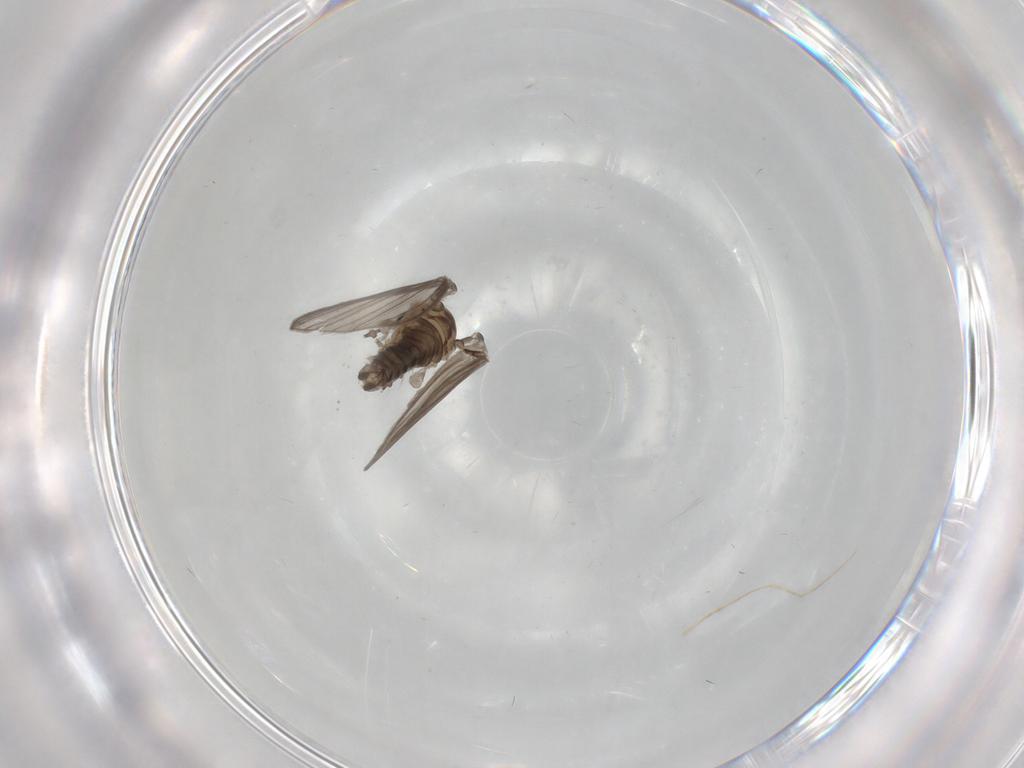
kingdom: Animalia
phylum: Arthropoda
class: Insecta
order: Diptera
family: Psychodidae
